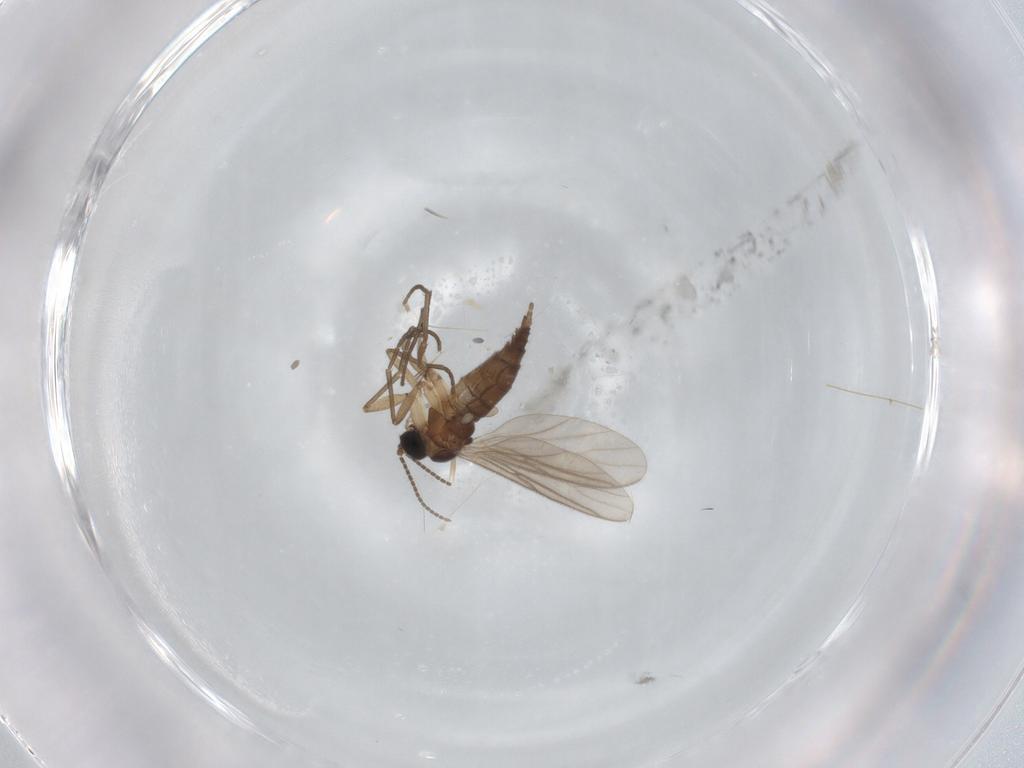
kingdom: Animalia
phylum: Arthropoda
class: Insecta
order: Diptera
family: Sciaridae
